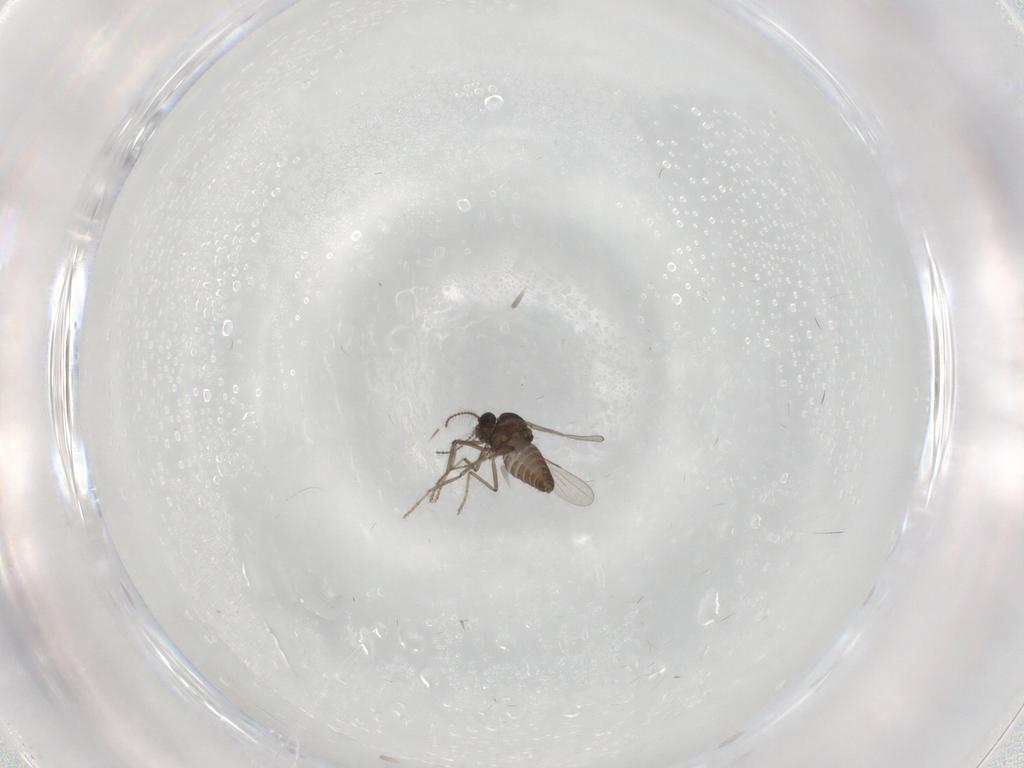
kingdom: Animalia
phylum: Arthropoda
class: Insecta
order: Diptera
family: Ceratopogonidae
